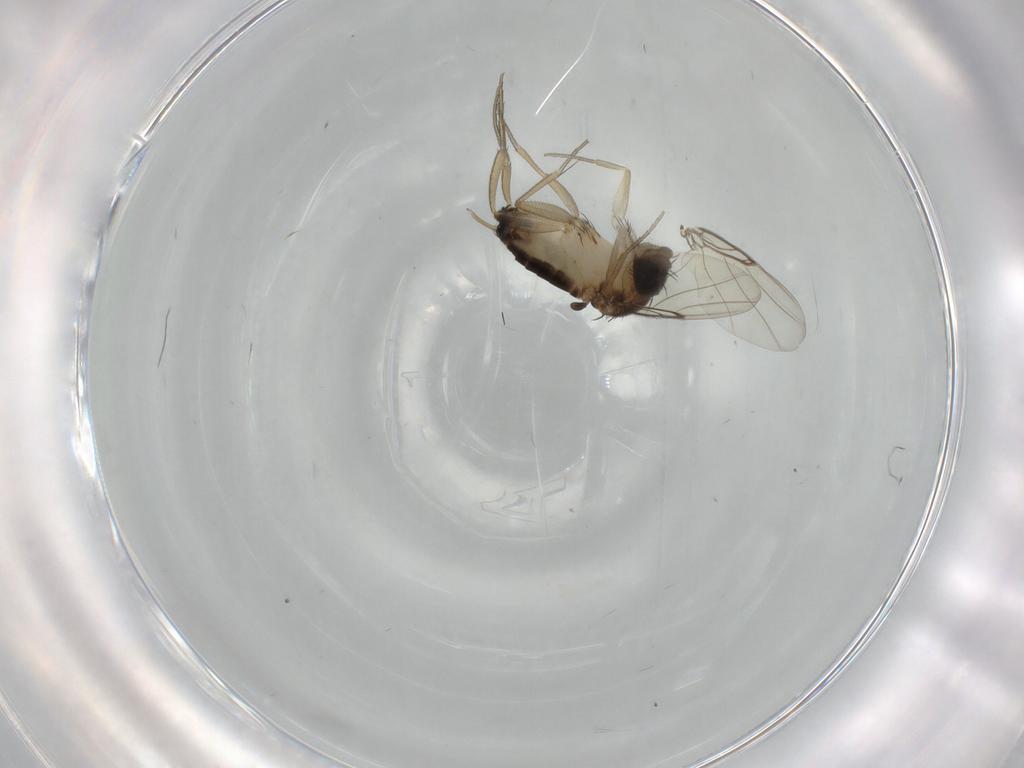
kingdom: Animalia
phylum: Arthropoda
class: Insecta
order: Diptera
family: Phoridae
